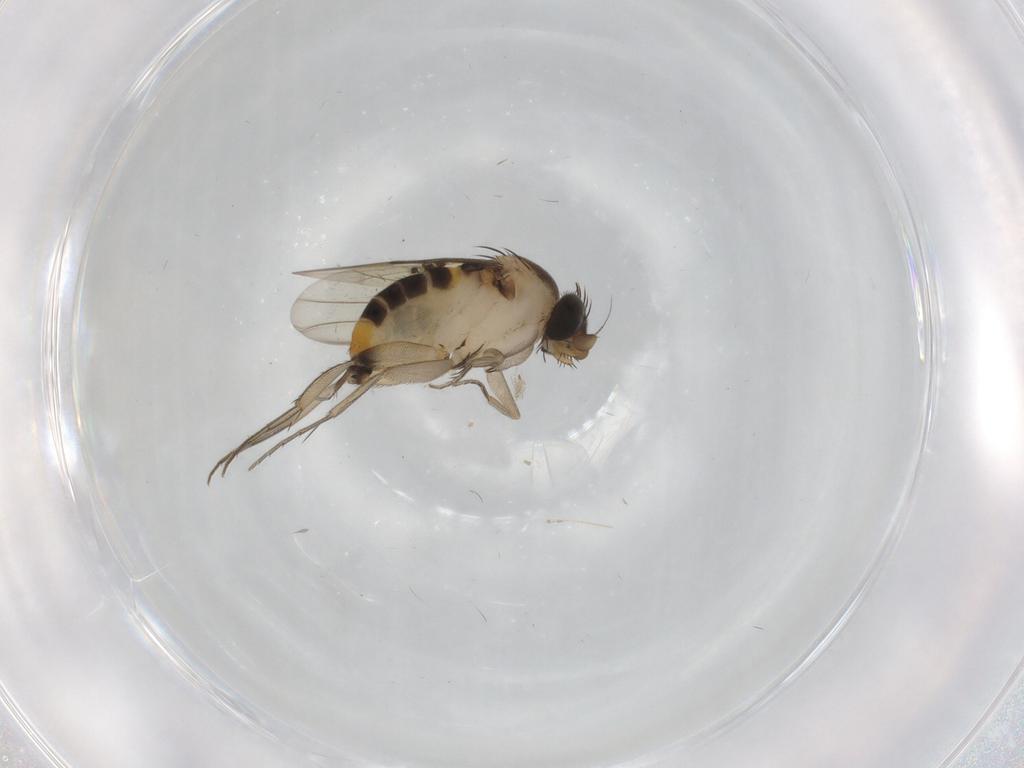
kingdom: Animalia
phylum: Arthropoda
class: Insecta
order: Diptera
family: Phoridae
